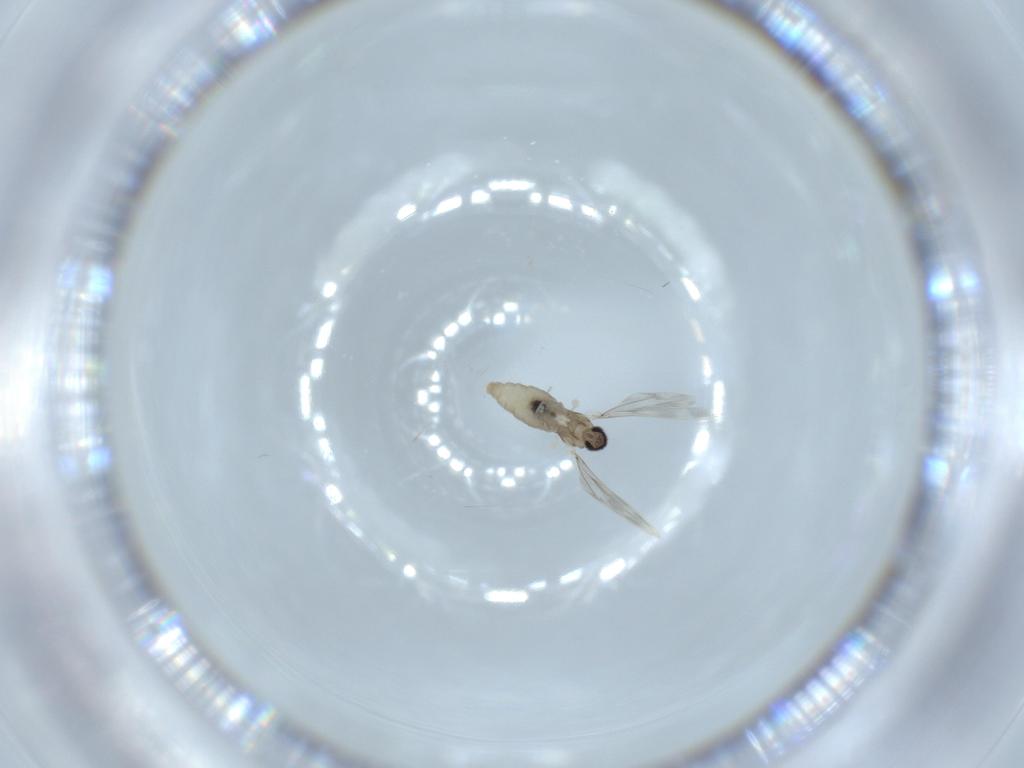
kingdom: Animalia
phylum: Arthropoda
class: Insecta
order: Diptera
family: Cecidomyiidae
